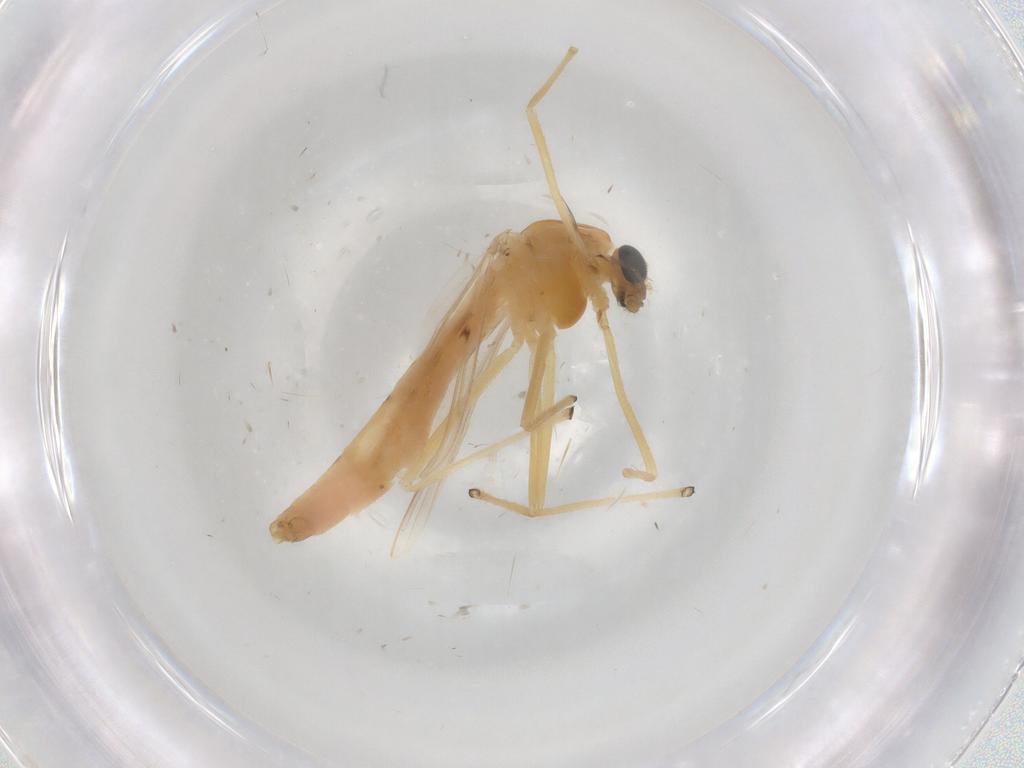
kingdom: Animalia
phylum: Arthropoda
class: Insecta
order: Diptera
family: Chironomidae
